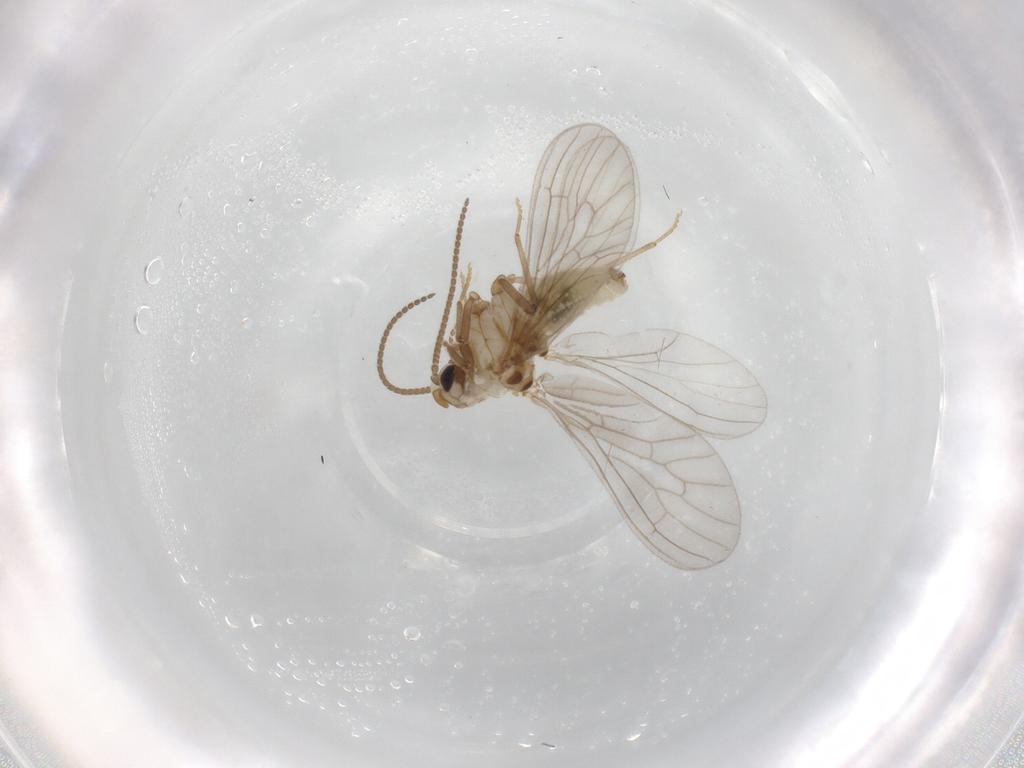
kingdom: Animalia
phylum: Arthropoda
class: Insecta
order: Neuroptera
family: Coniopterygidae
